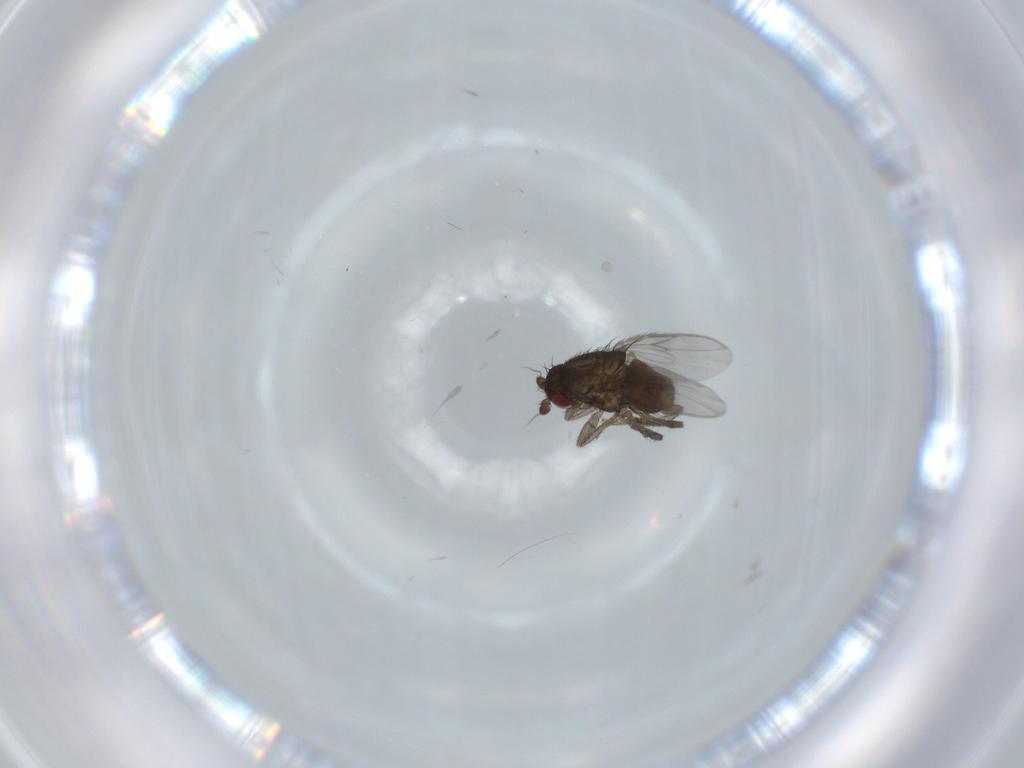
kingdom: Animalia
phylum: Arthropoda
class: Insecta
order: Diptera
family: Sphaeroceridae
